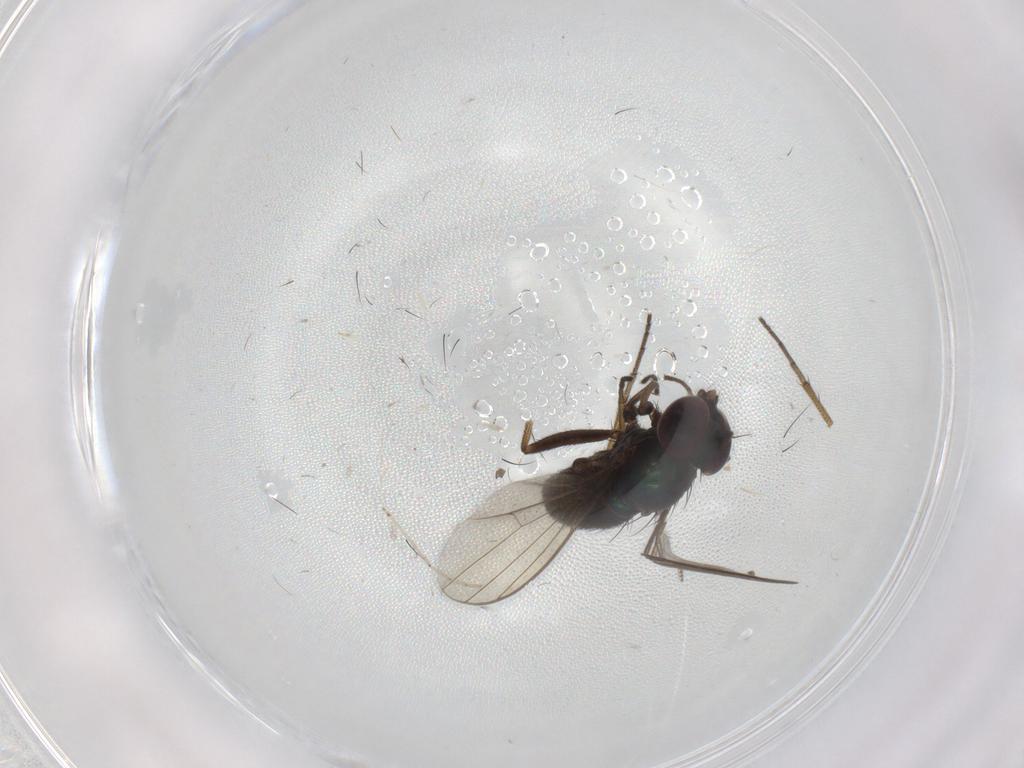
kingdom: Animalia
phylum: Arthropoda
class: Insecta
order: Diptera
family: Dolichopodidae
